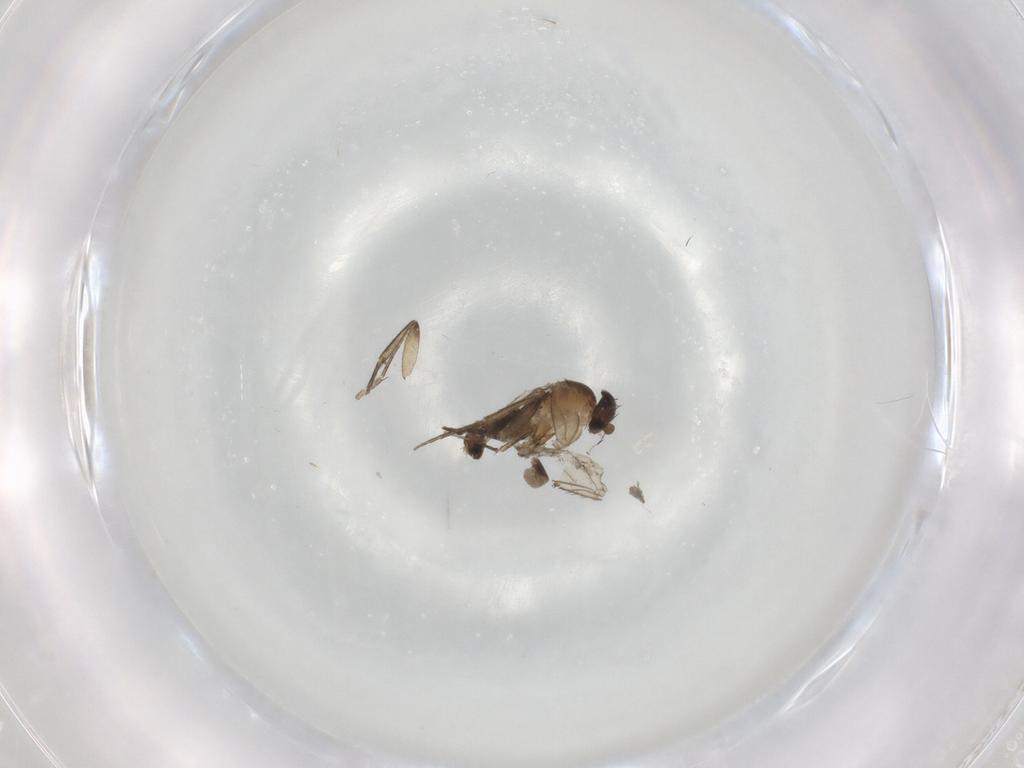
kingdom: Animalia
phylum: Arthropoda
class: Insecta
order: Diptera
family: Phoridae
